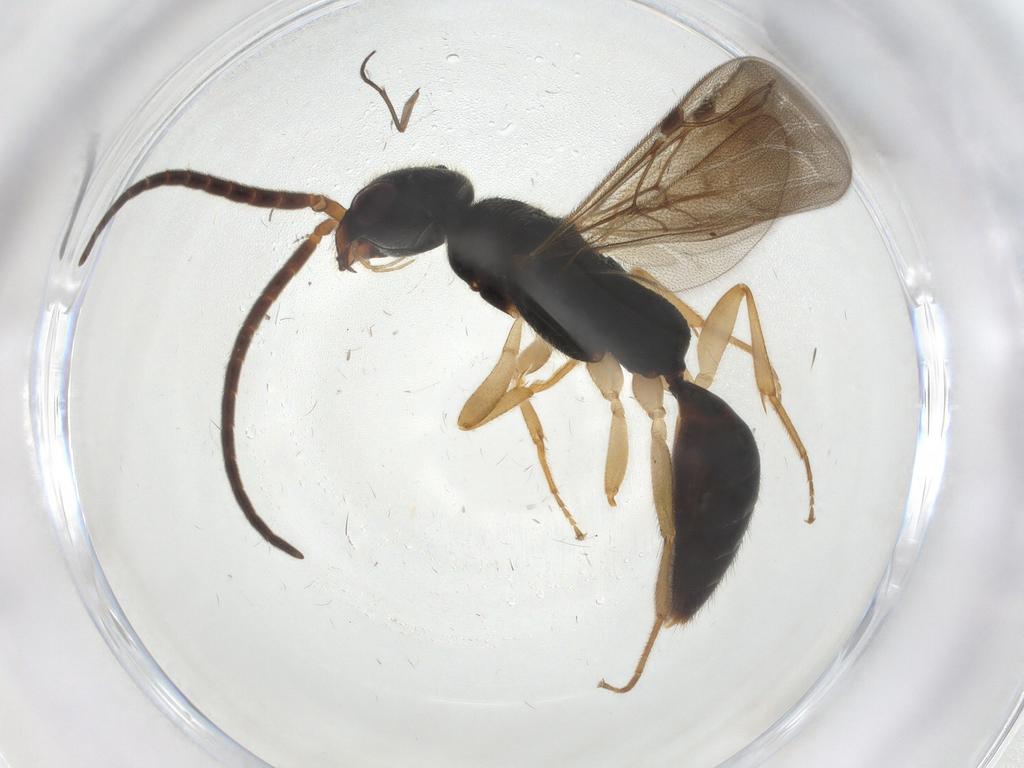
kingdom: Animalia
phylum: Arthropoda
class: Insecta
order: Hymenoptera
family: Bethylidae
